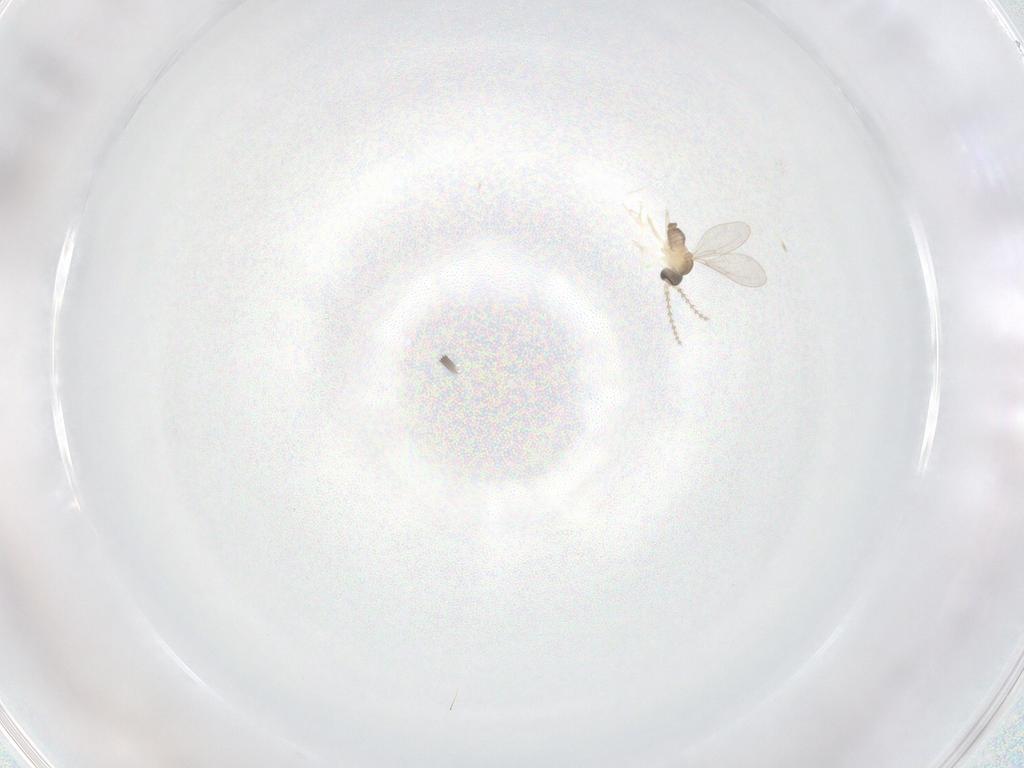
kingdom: Animalia
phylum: Arthropoda
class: Insecta
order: Diptera
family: Cecidomyiidae
